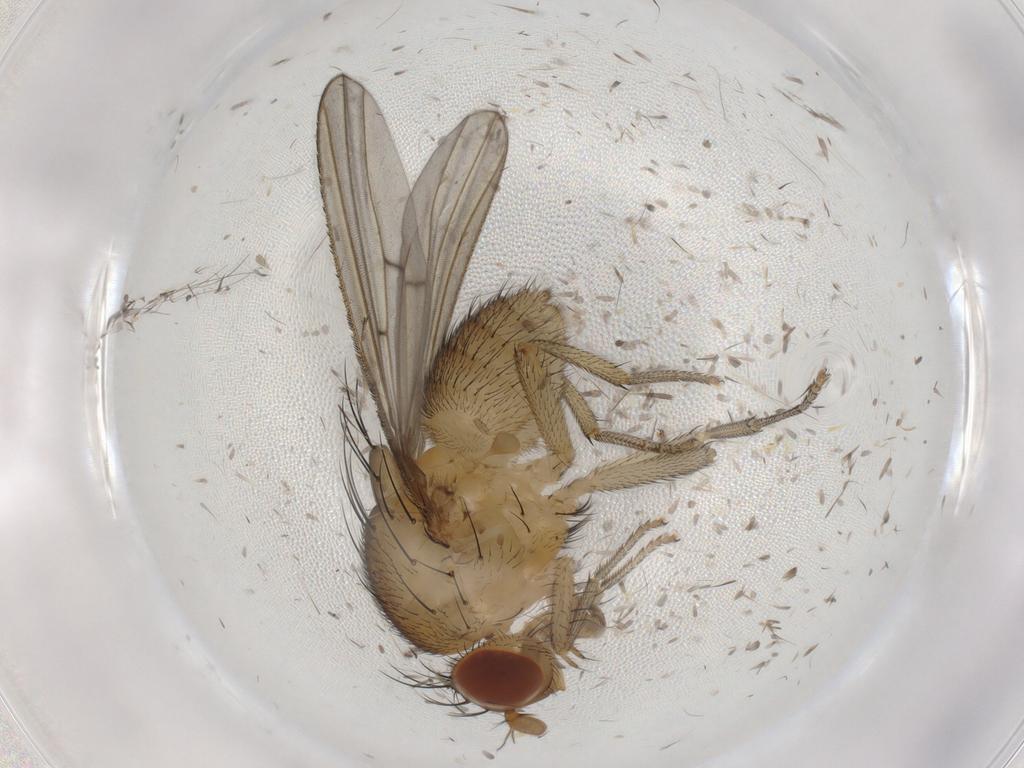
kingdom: Animalia
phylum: Arthropoda
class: Insecta
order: Diptera
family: Ceratopogonidae
